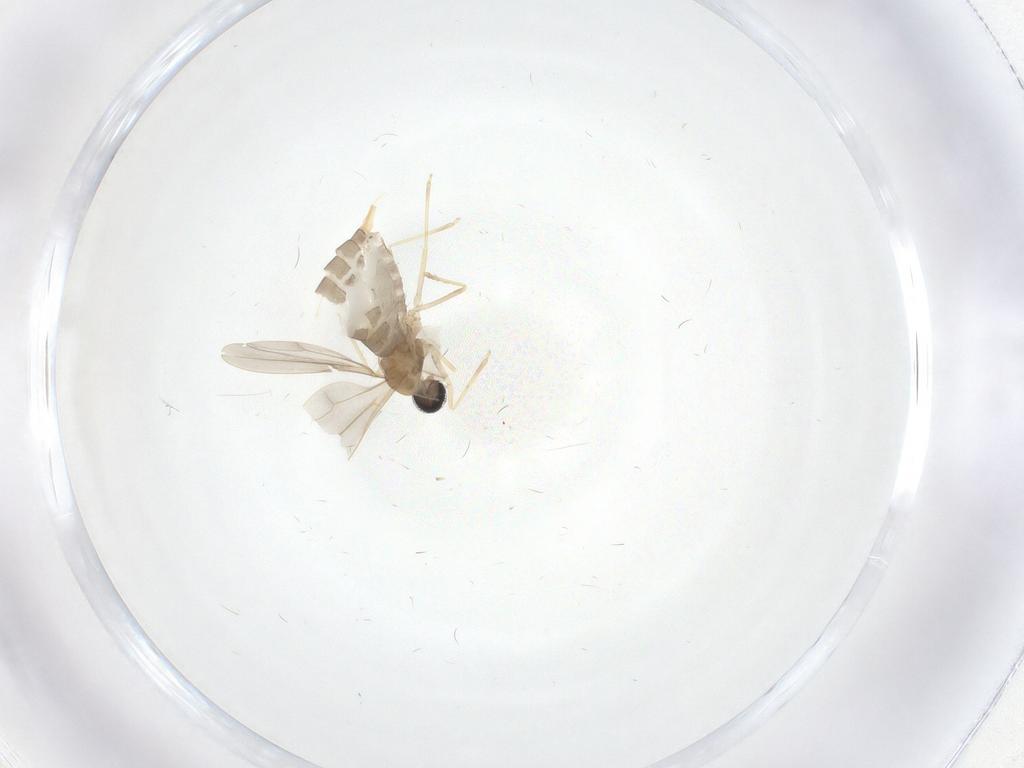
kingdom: Animalia
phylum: Arthropoda
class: Insecta
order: Diptera
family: Cecidomyiidae
